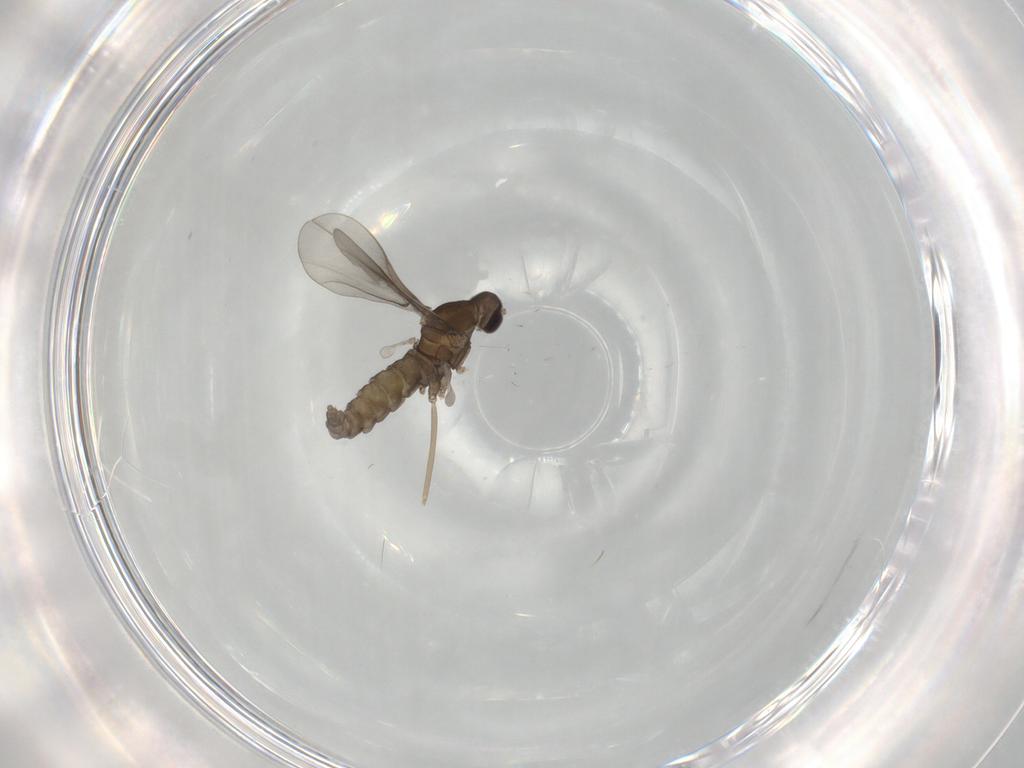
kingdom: Animalia
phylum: Arthropoda
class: Insecta
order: Diptera
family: Cecidomyiidae
